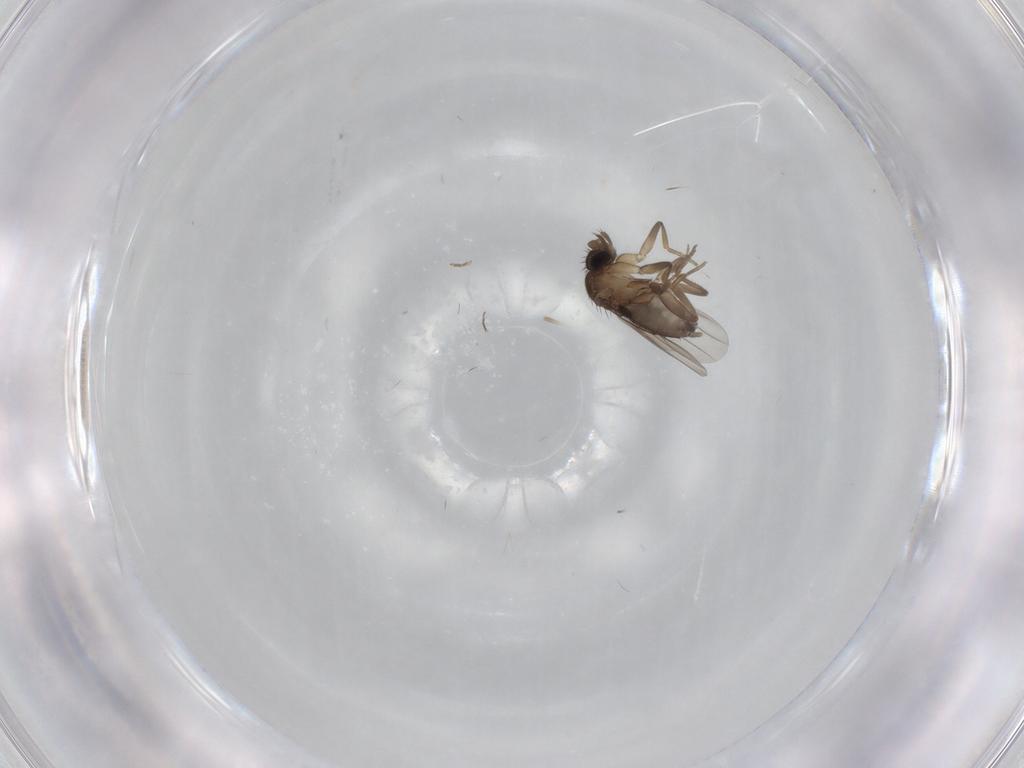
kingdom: Animalia
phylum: Arthropoda
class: Insecta
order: Diptera
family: Phoridae
